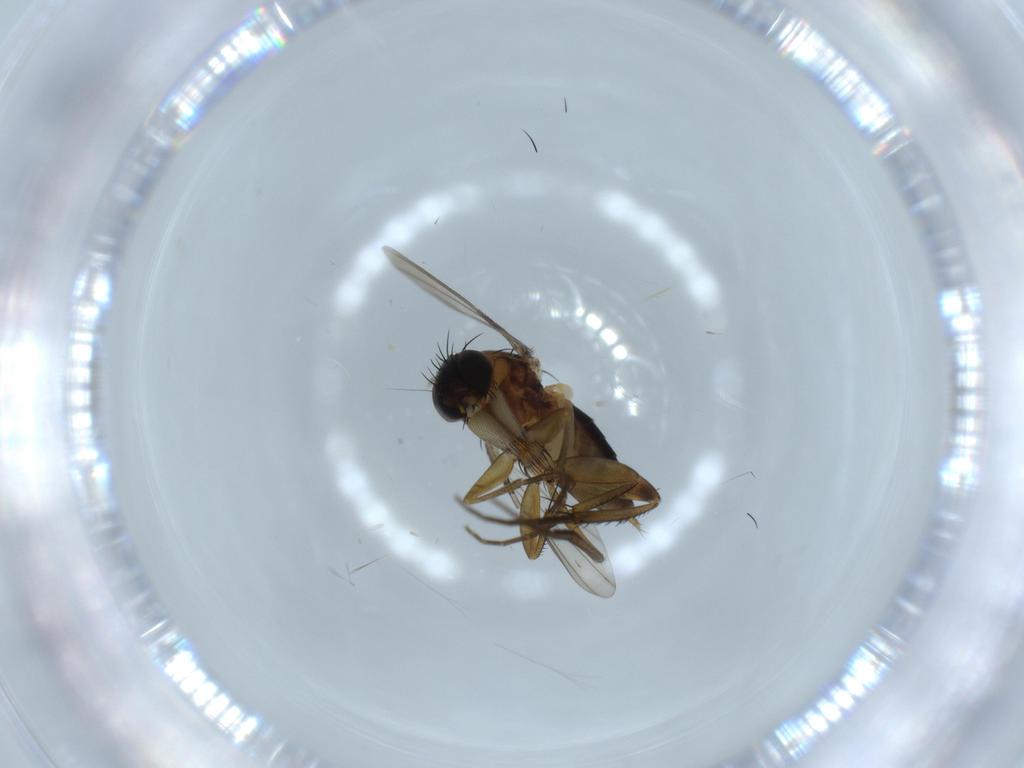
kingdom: Animalia
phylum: Arthropoda
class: Insecta
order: Diptera
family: Phoridae
